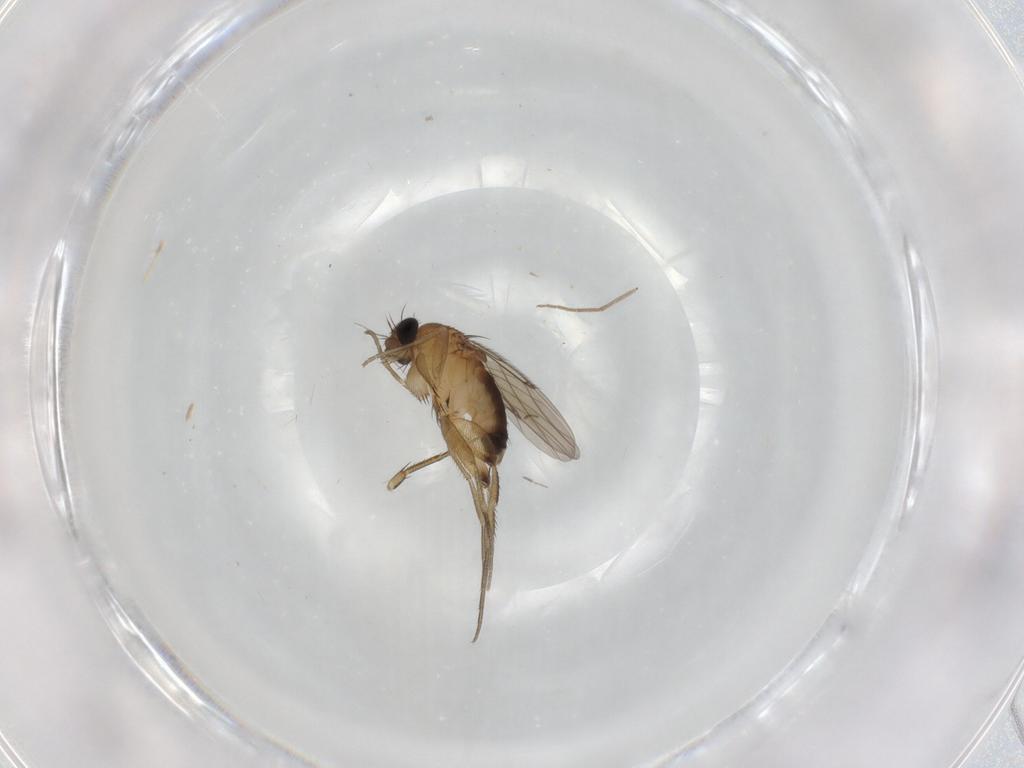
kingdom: Animalia
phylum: Arthropoda
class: Insecta
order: Diptera
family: Phoridae
